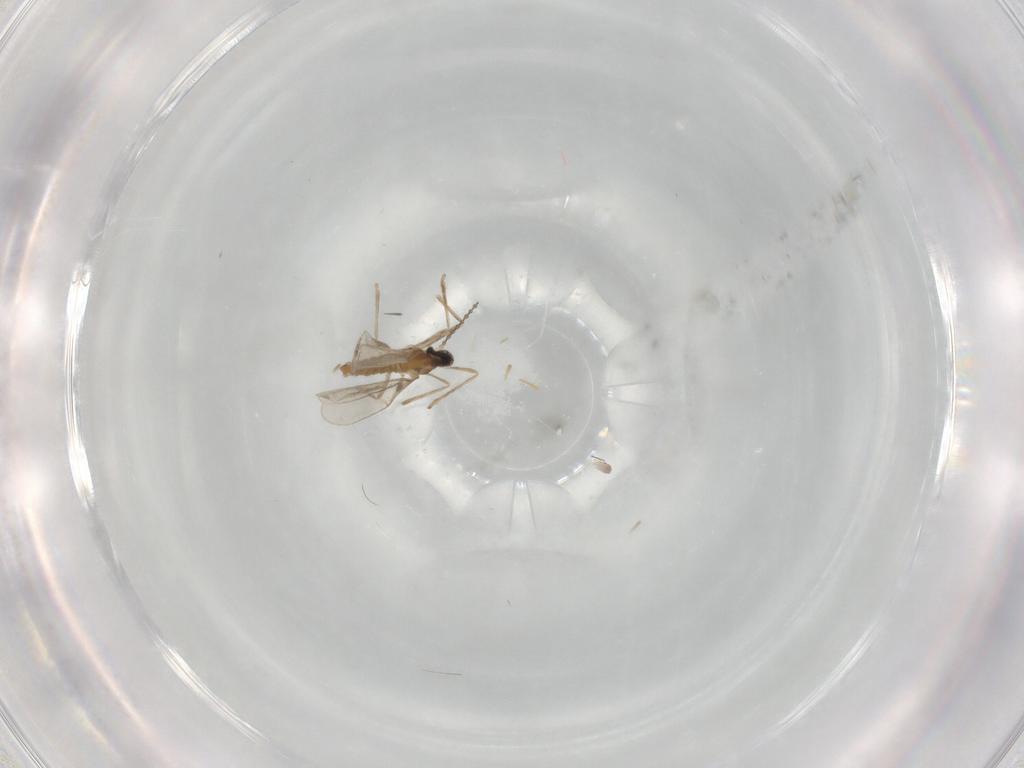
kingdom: Animalia
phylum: Arthropoda
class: Insecta
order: Diptera
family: Cecidomyiidae
